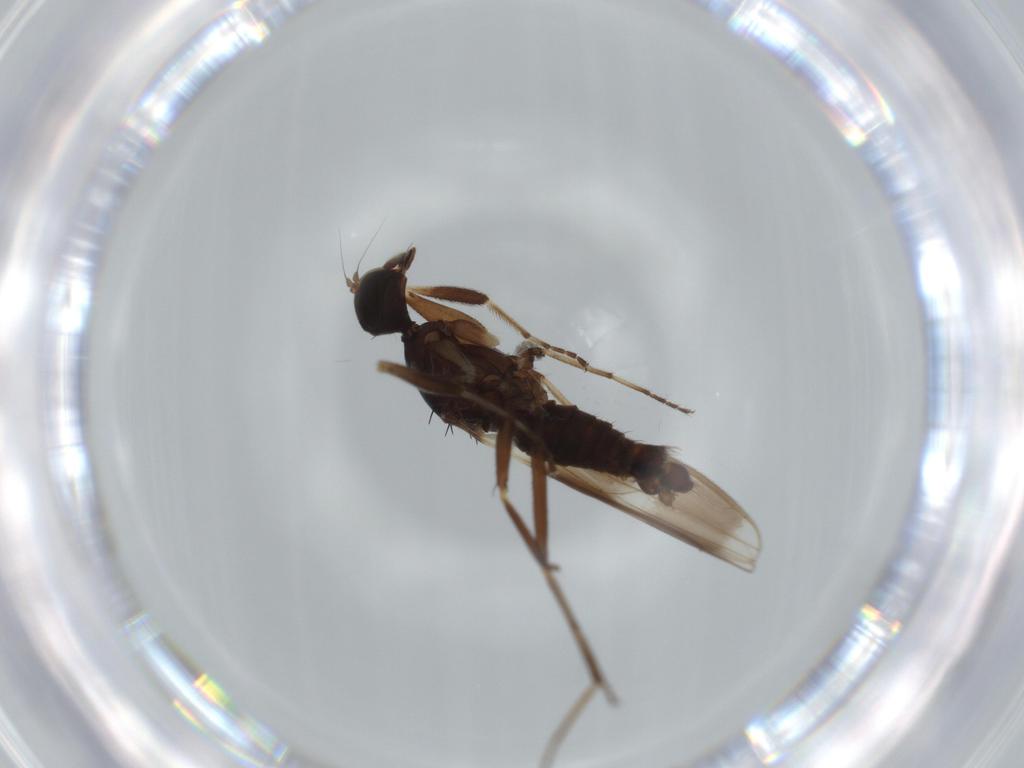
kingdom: Animalia
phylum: Arthropoda
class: Insecta
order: Diptera
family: Hybotidae
